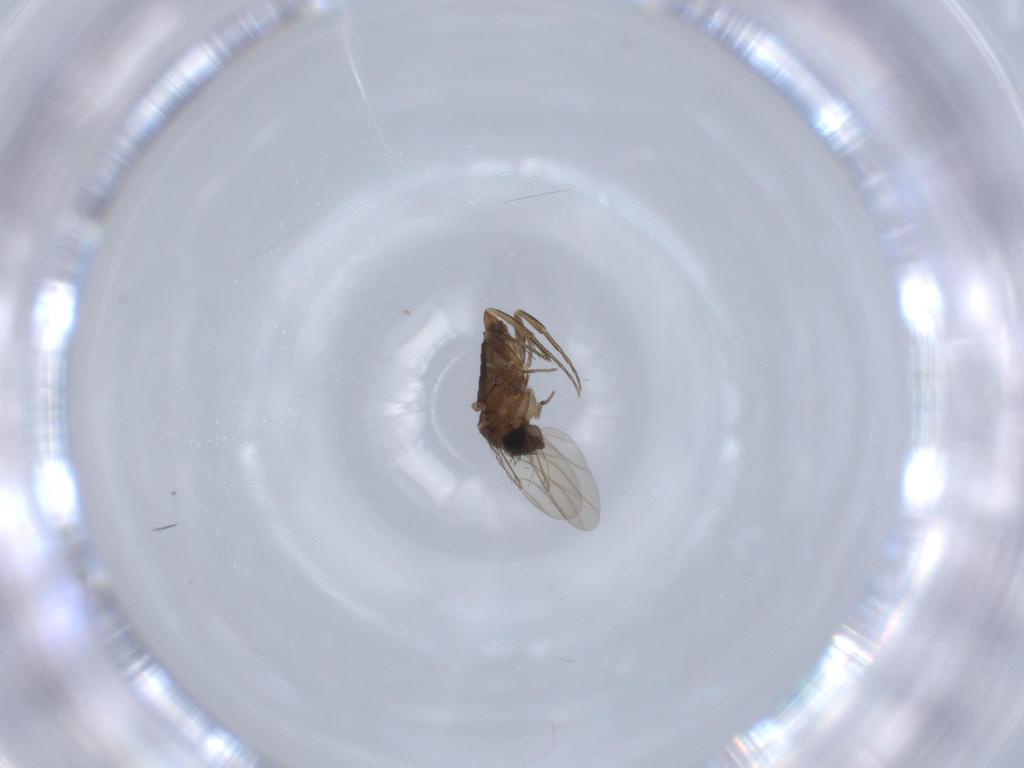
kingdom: Animalia
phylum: Arthropoda
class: Insecta
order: Diptera
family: Phoridae
